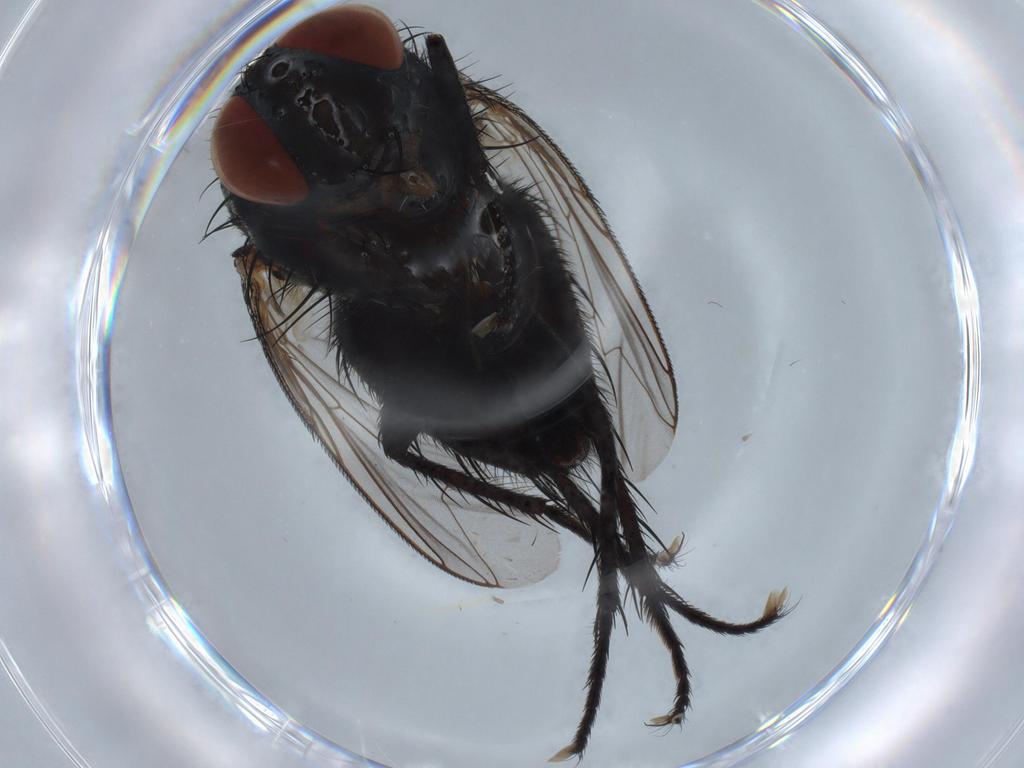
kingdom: Animalia
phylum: Arthropoda
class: Insecta
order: Diptera
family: Sarcophagidae
